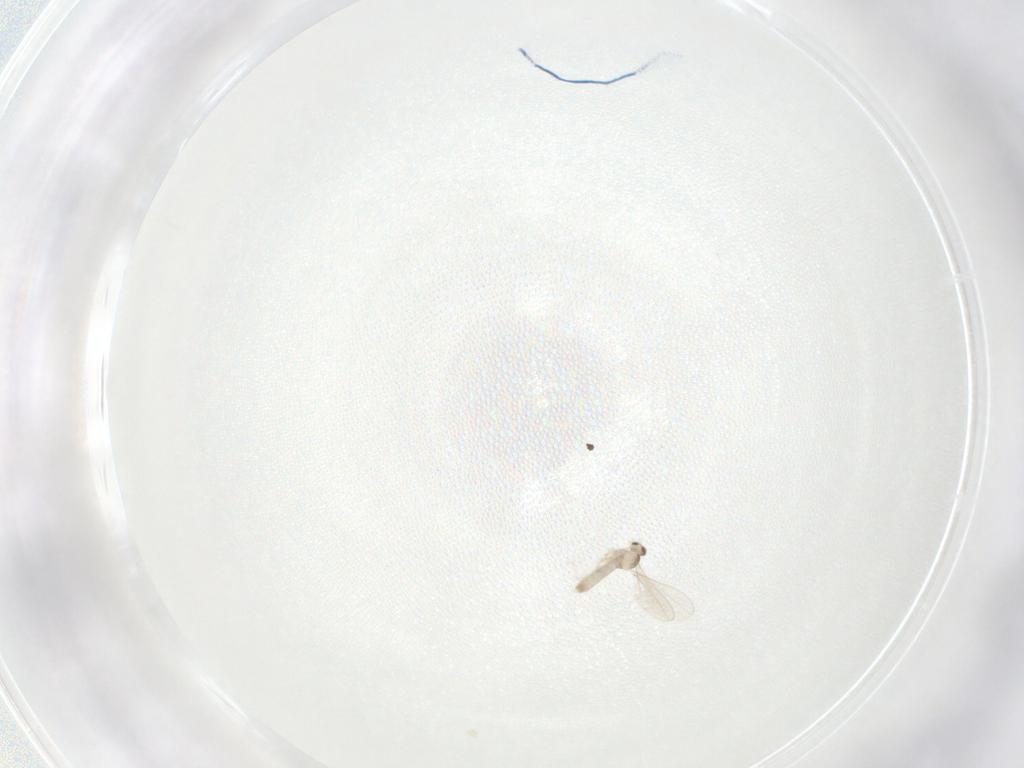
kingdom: Animalia
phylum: Arthropoda
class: Insecta
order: Diptera
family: Cecidomyiidae
